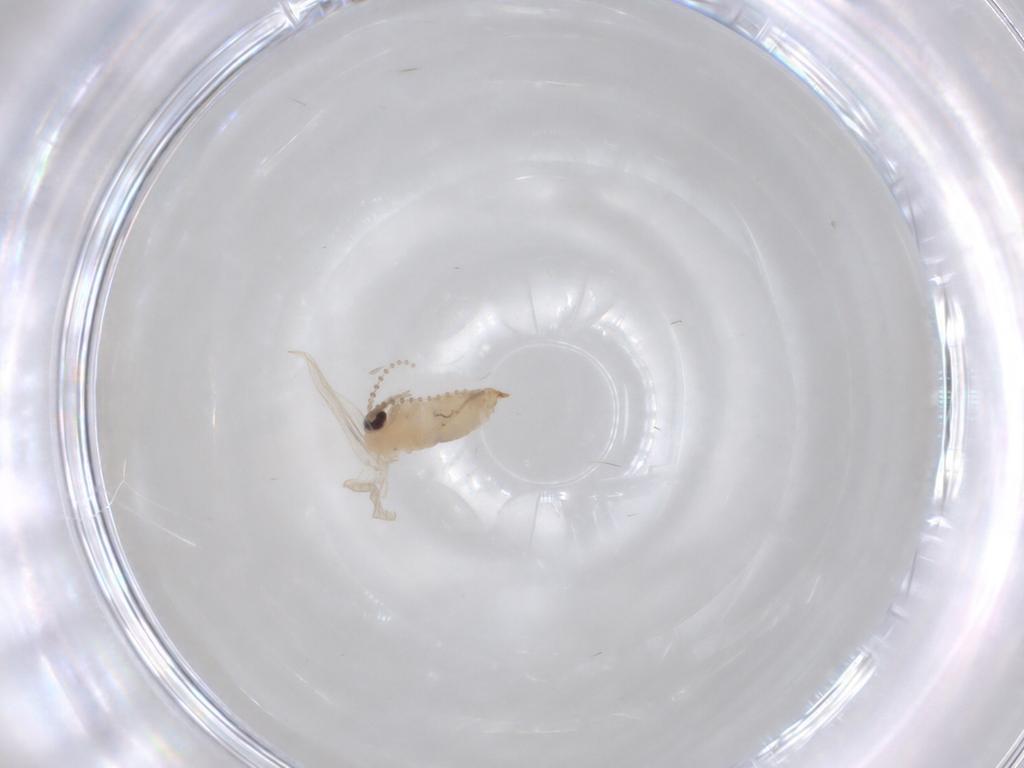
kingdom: Animalia
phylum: Arthropoda
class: Insecta
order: Diptera
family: Psychodidae
